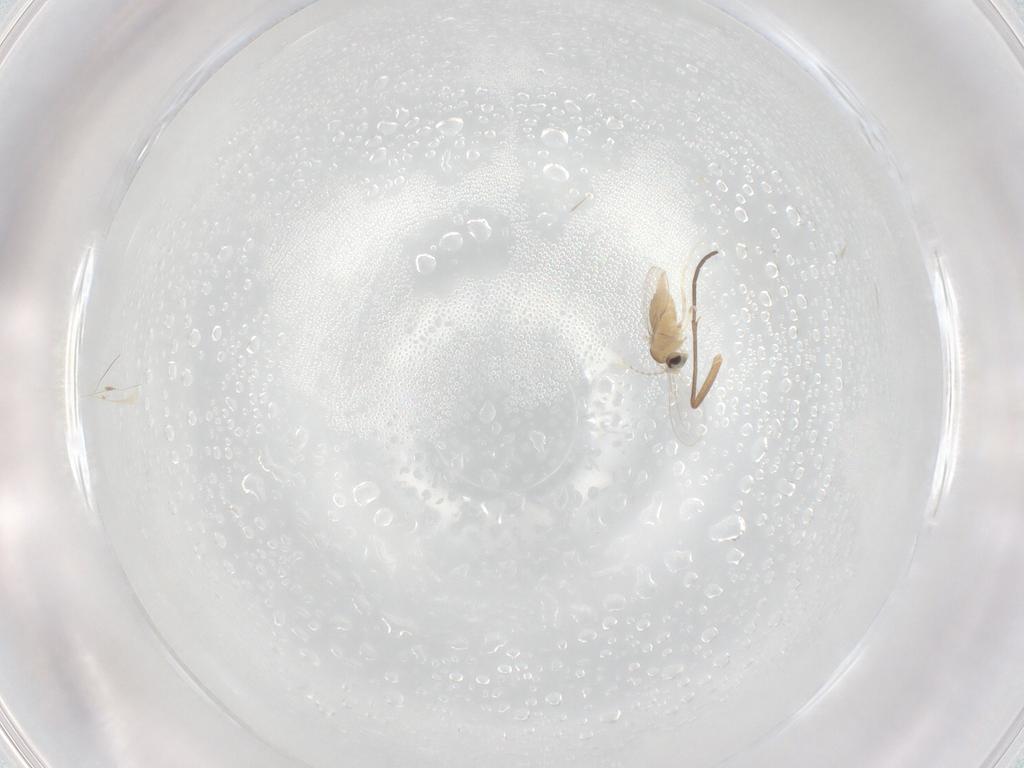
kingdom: Animalia
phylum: Arthropoda
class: Insecta
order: Diptera
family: Sciaridae
